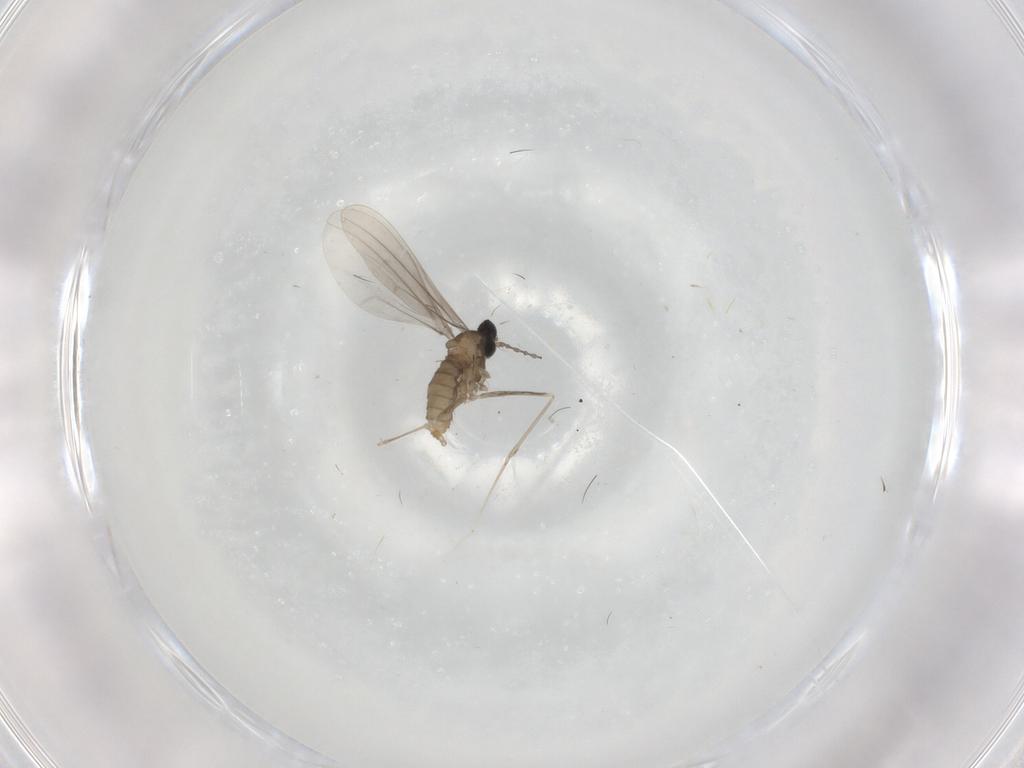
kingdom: Animalia
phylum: Arthropoda
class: Insecta
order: Diptera
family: Cecidomyiidae
